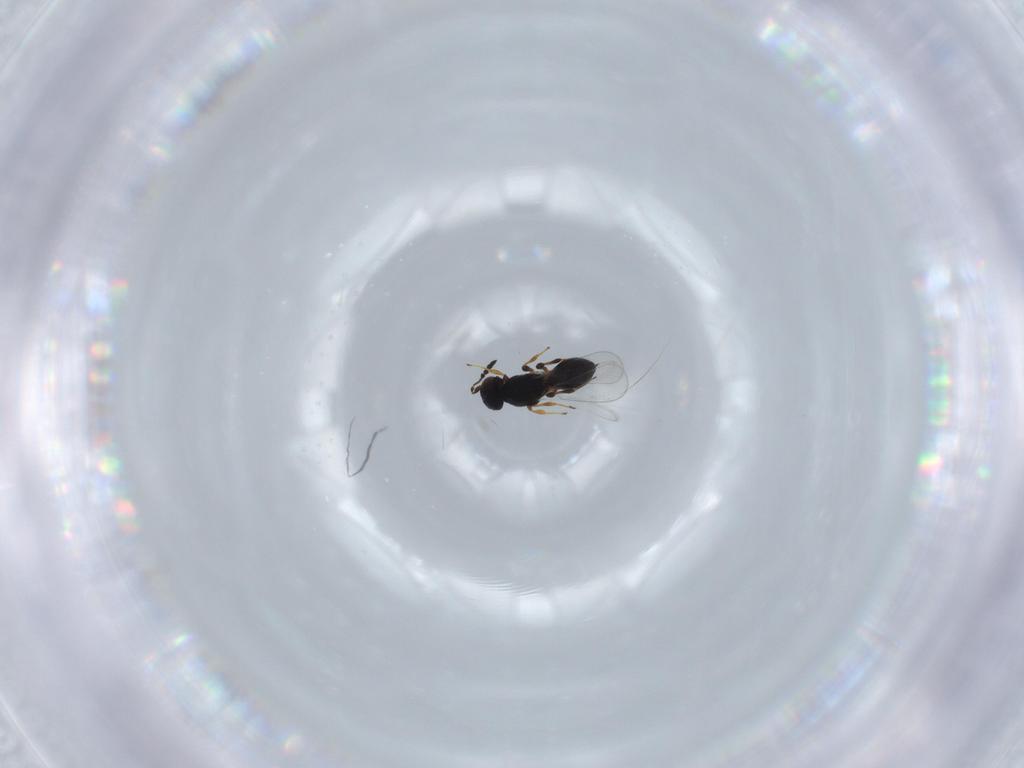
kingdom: Animalia
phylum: Arthropoda
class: Insecta
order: Hymenoptera
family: Platygastridae
